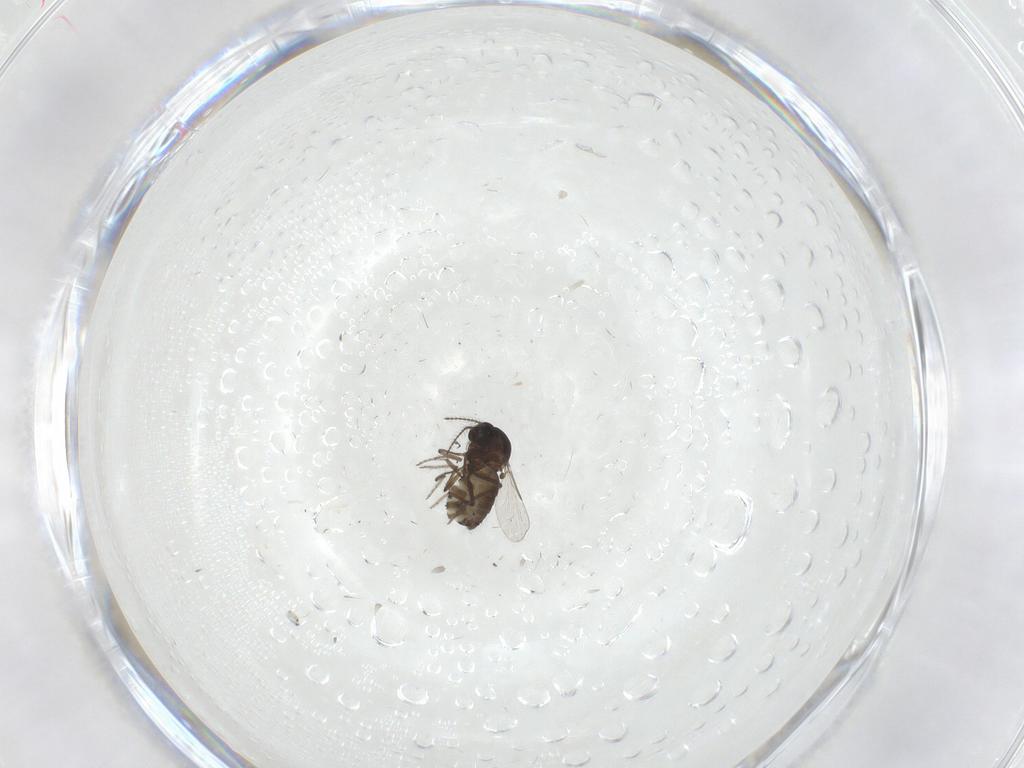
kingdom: Animalia
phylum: Arthropoda
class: Insecta
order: Diptera
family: Ceratopogonidae
